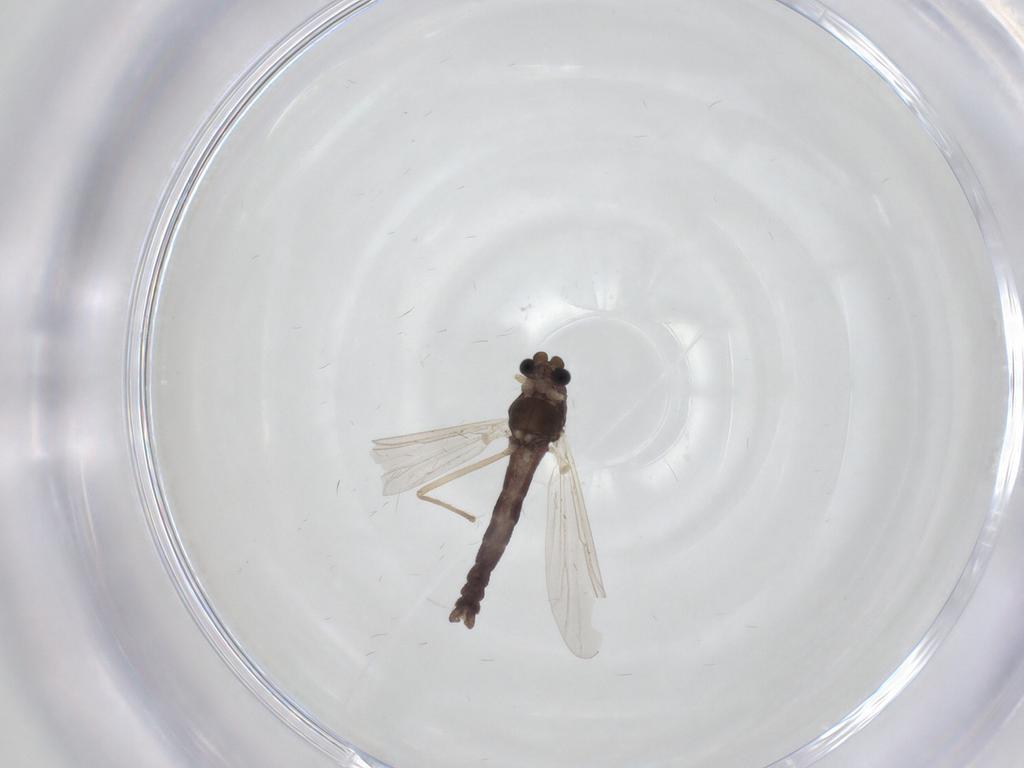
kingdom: Animalia
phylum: Arthropoda
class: Insecta
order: Diptera
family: Chironomidae
